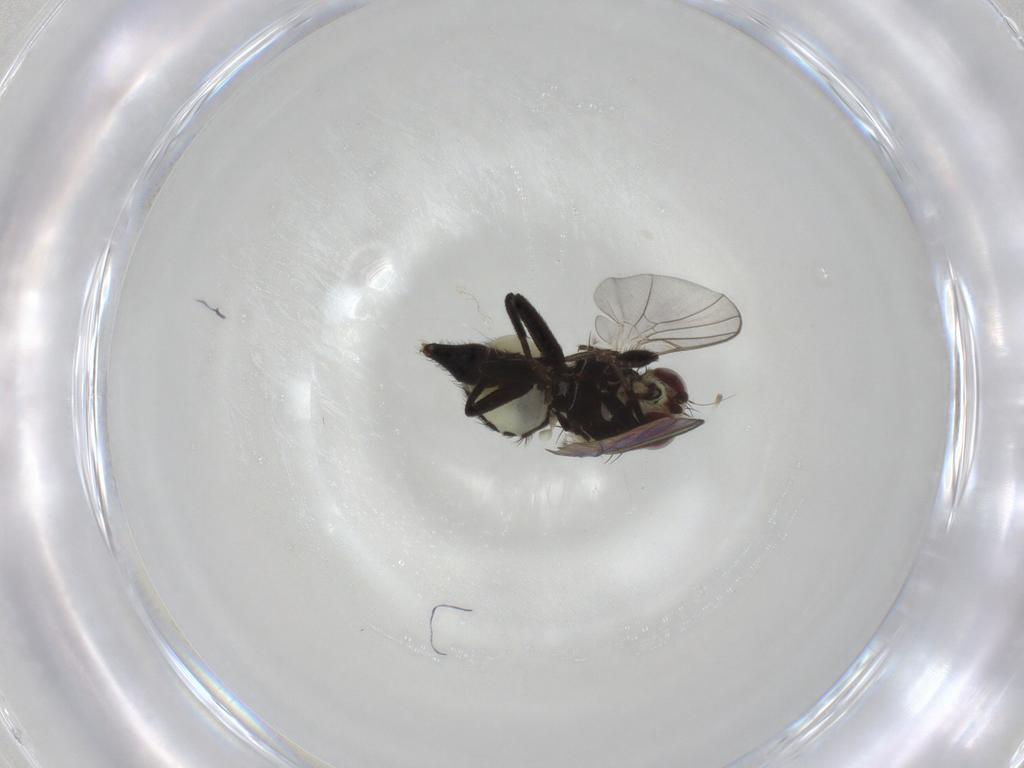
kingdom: Animalia
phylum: Arthropoda
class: Insecta
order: Diptera
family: Agromyzidae
